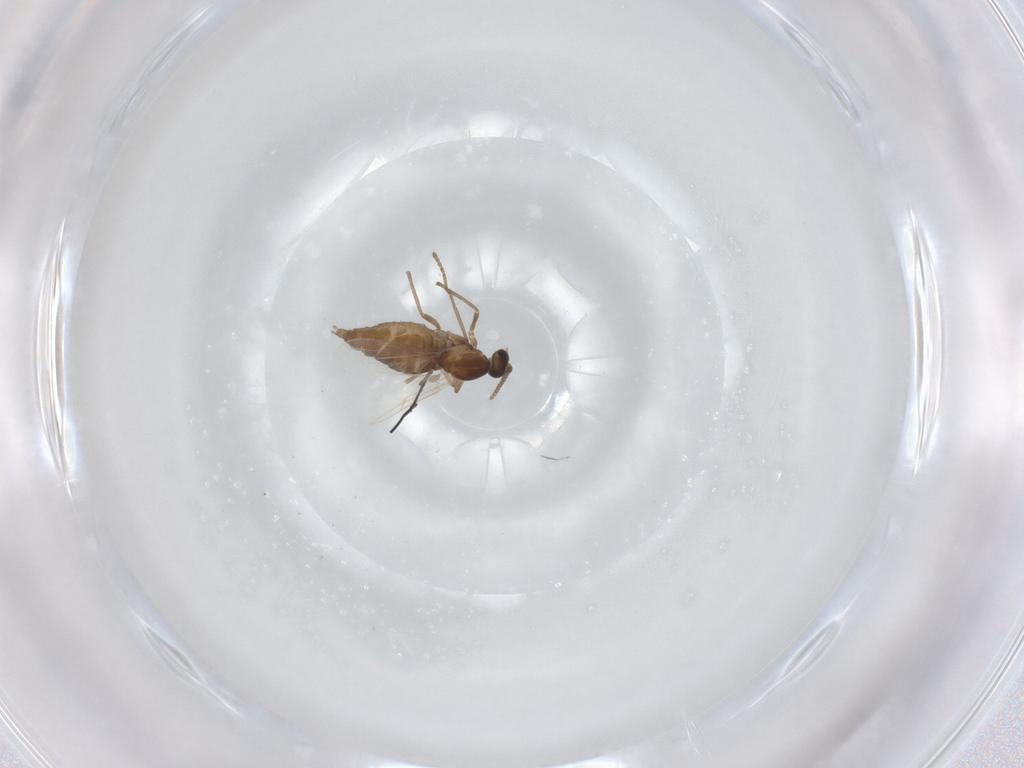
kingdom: Animalia
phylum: Arthropoda
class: Insecta
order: Diptera
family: Cecidomyiidae
